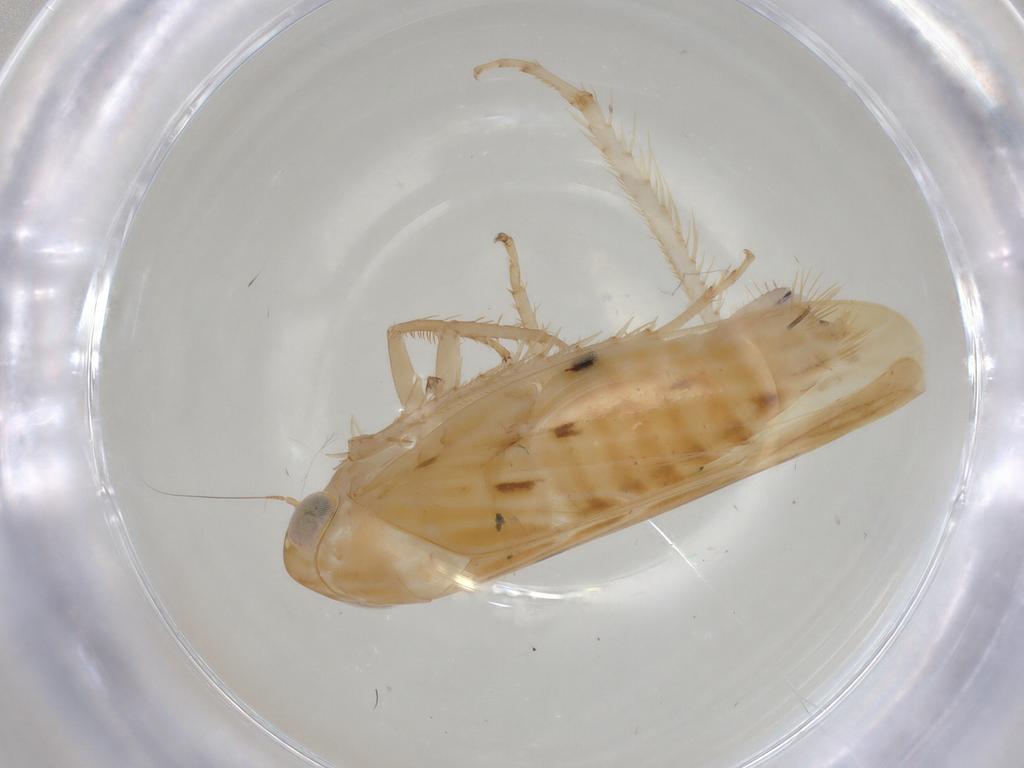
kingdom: Animalia
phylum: Arthropoda
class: Insecta
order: Hemiptera
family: Cicadellidae
